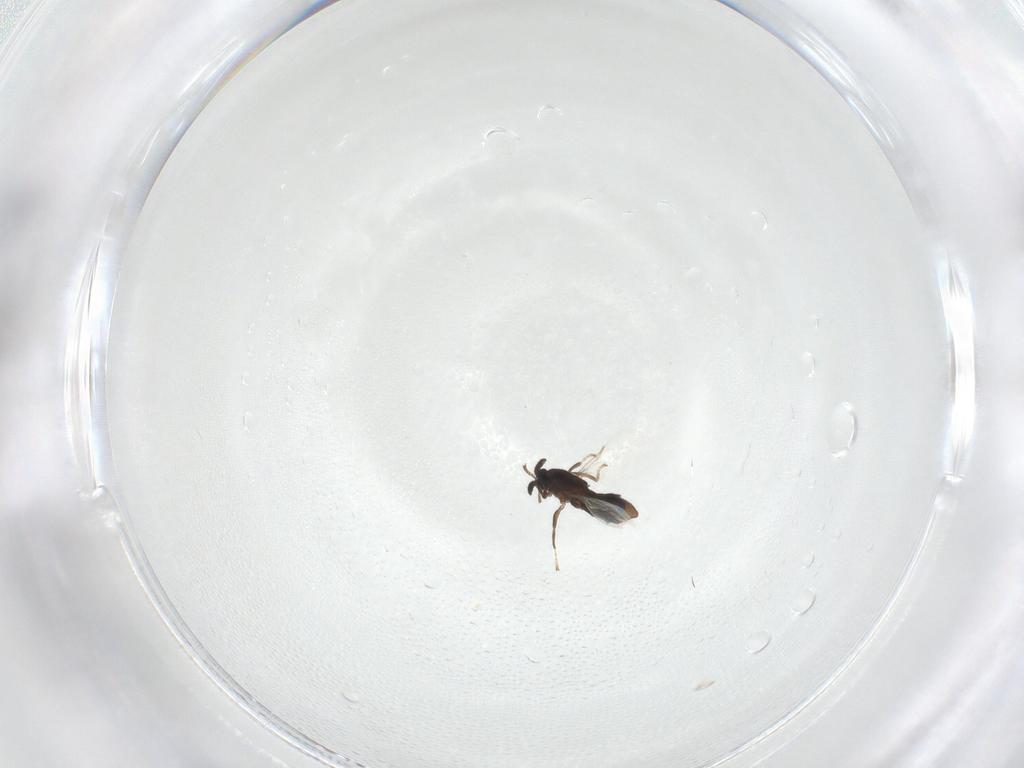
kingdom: Animalia
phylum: Arthropoda
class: Insecta
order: Diptera
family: Scatopsidae
